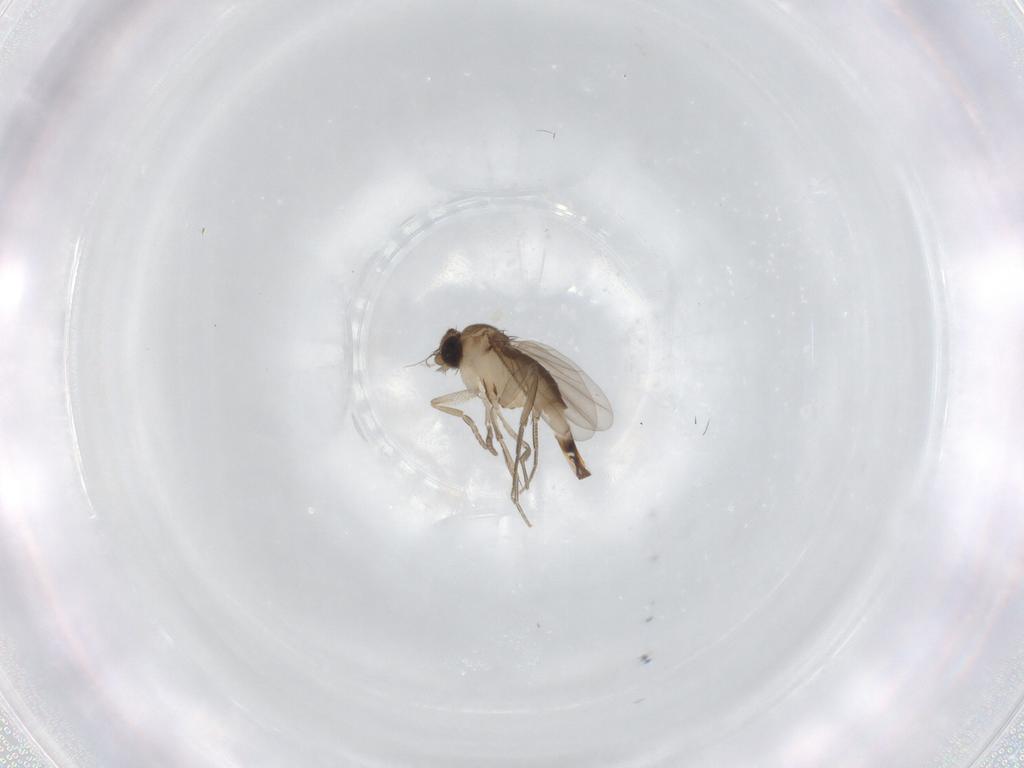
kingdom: Animalia
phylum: Arthropoda
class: Insecta
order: Diptera
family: Phoridae
